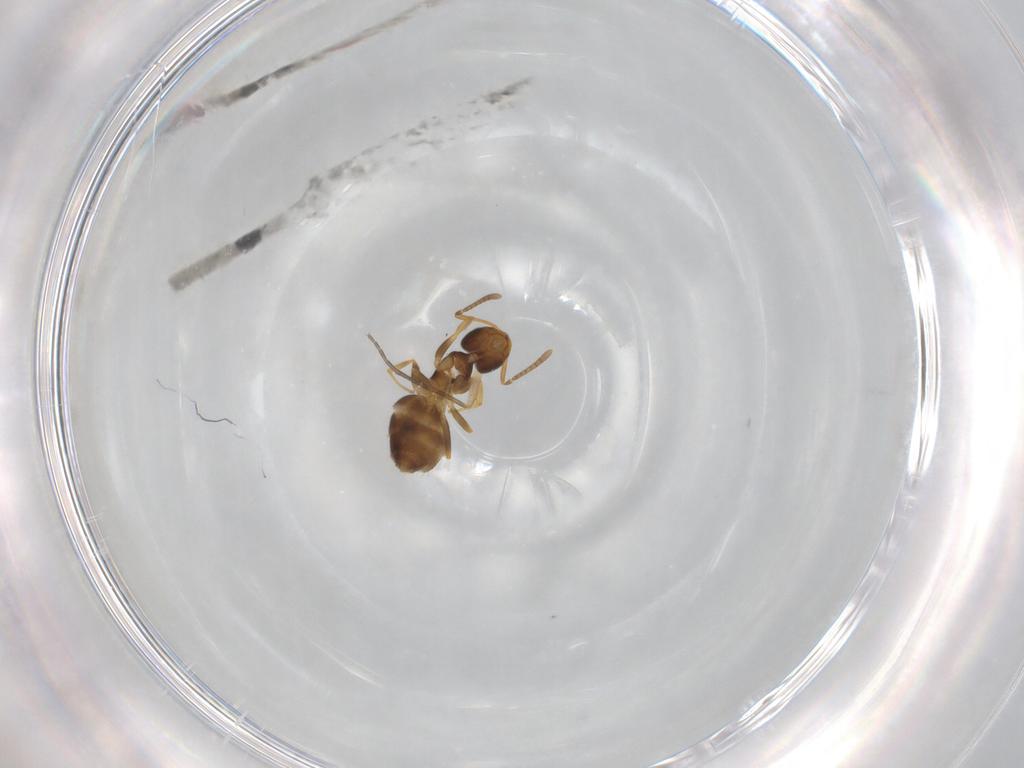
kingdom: Animalia
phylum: Arthropoda
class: Insecta
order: Hymenoptera
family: Formicidae
